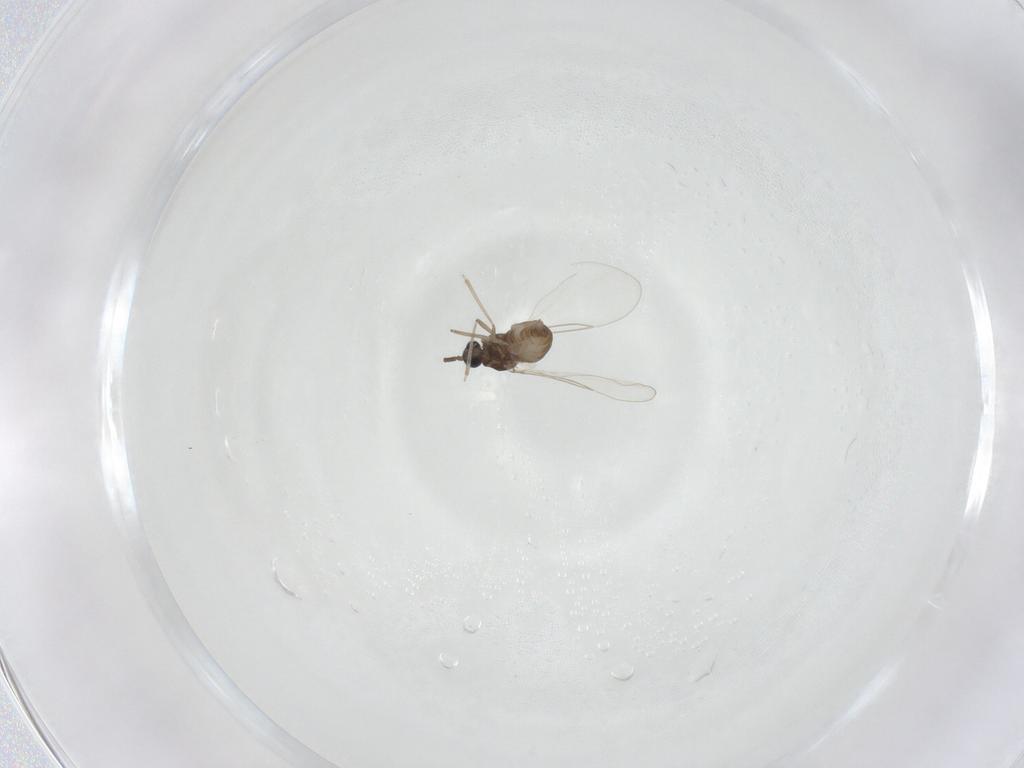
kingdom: Animalia
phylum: Arthropoda
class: Insecta
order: Diptera
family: Cecidomyiidae
